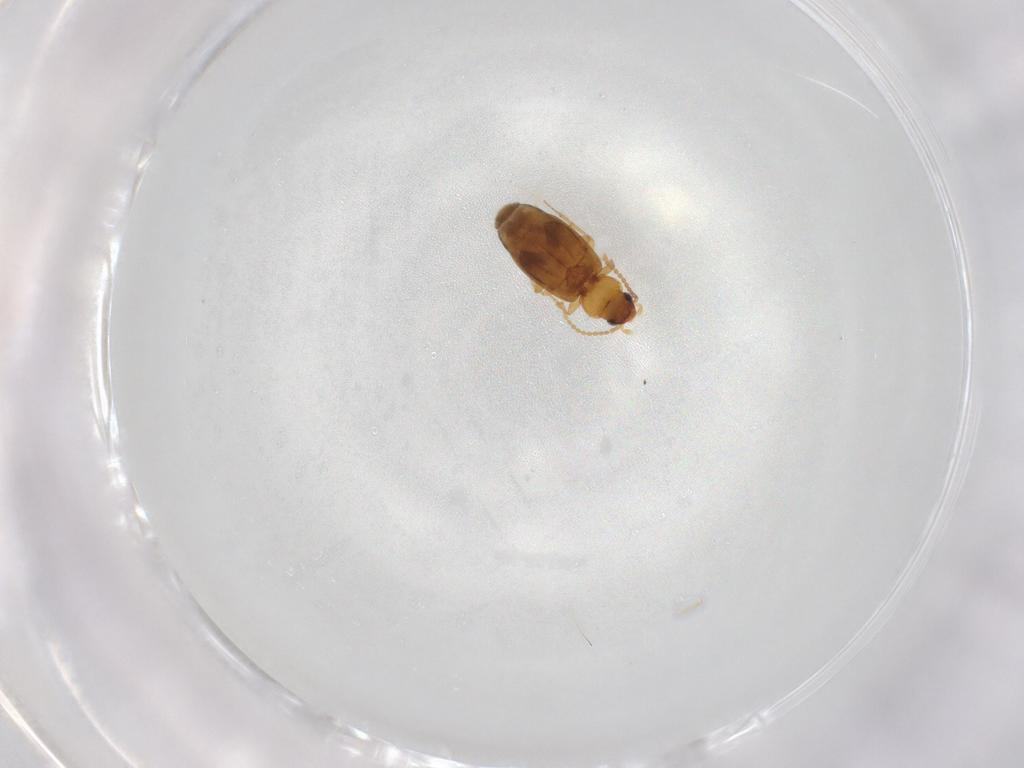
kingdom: Animalia
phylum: Arthropoda
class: Insecta
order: Coleoptera
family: Carabidae
